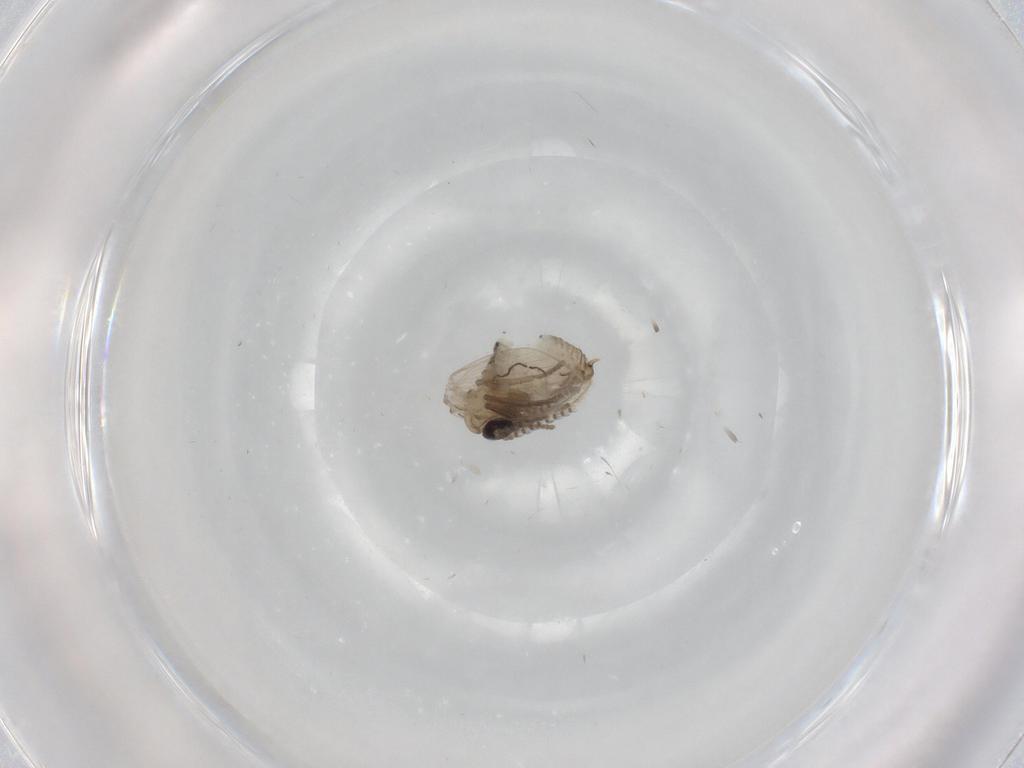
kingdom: Animalia
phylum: Arthropoda
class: Insecta
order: Diptera
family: Psychodidae
